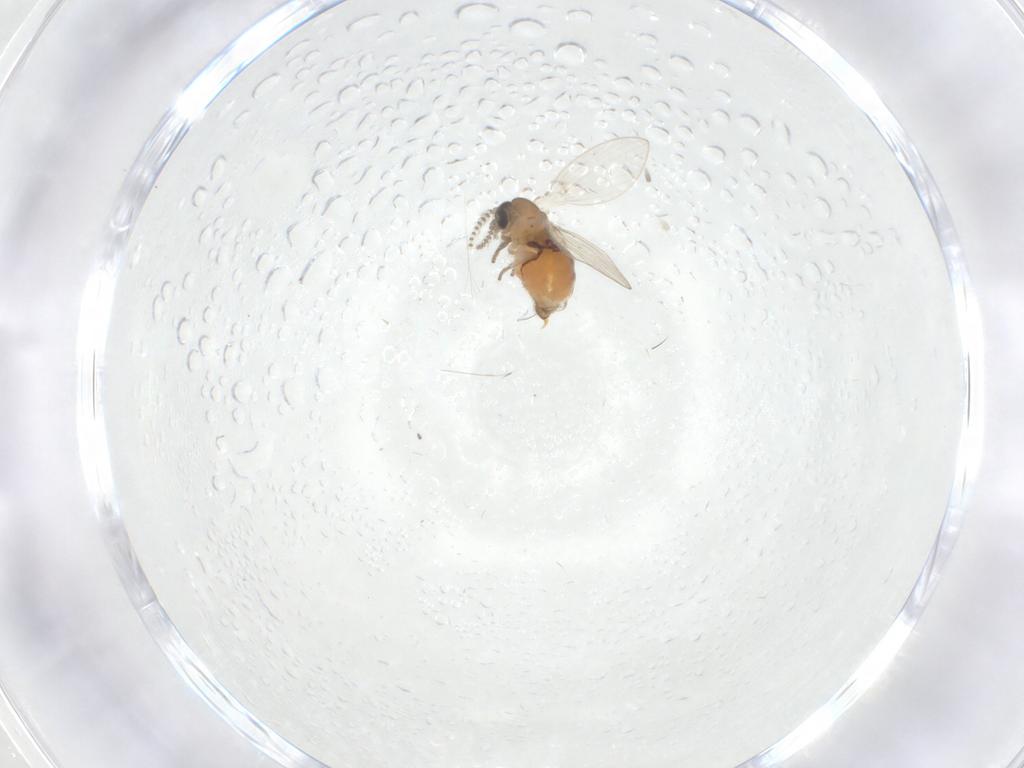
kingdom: Animalia
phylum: Arthropoda
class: Insecta
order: Diptera
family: Psychodidae
